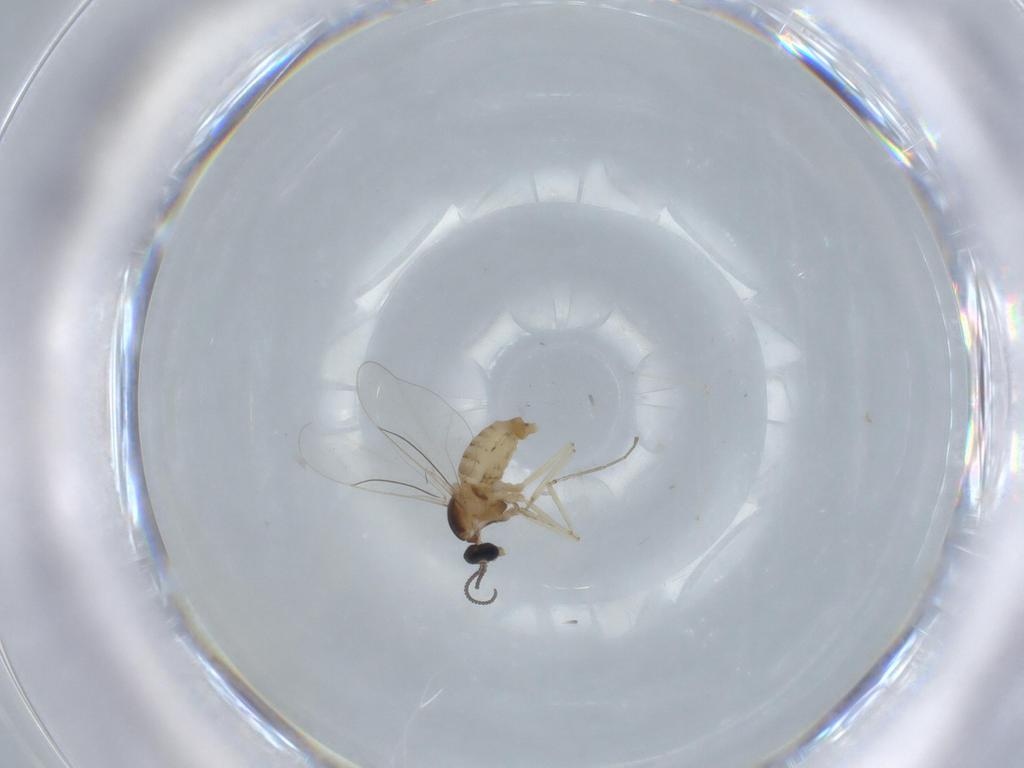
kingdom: Animalia
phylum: Arthropoda
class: Insecta
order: Diptera
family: Cecidomyiidae
